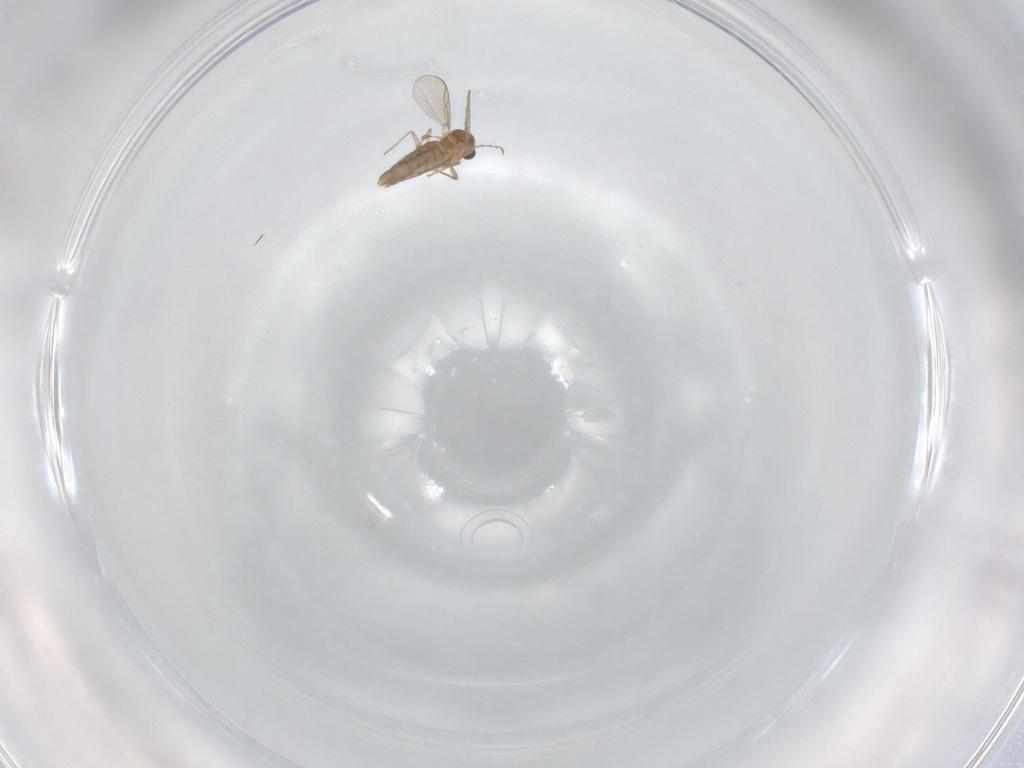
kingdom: Animalia
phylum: Arthropoda
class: Insecta
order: Diptera
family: Chironomidae
